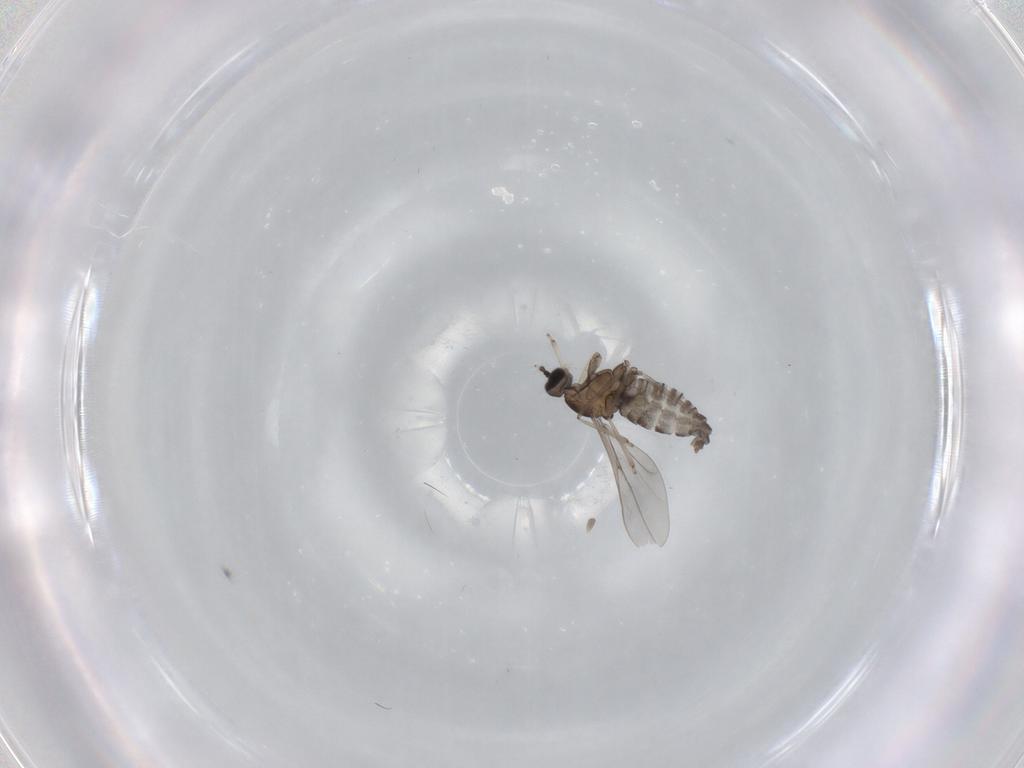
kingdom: Animalia
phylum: Arthropoda
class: Insecta
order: Diptera
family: Cecidomyiidae
